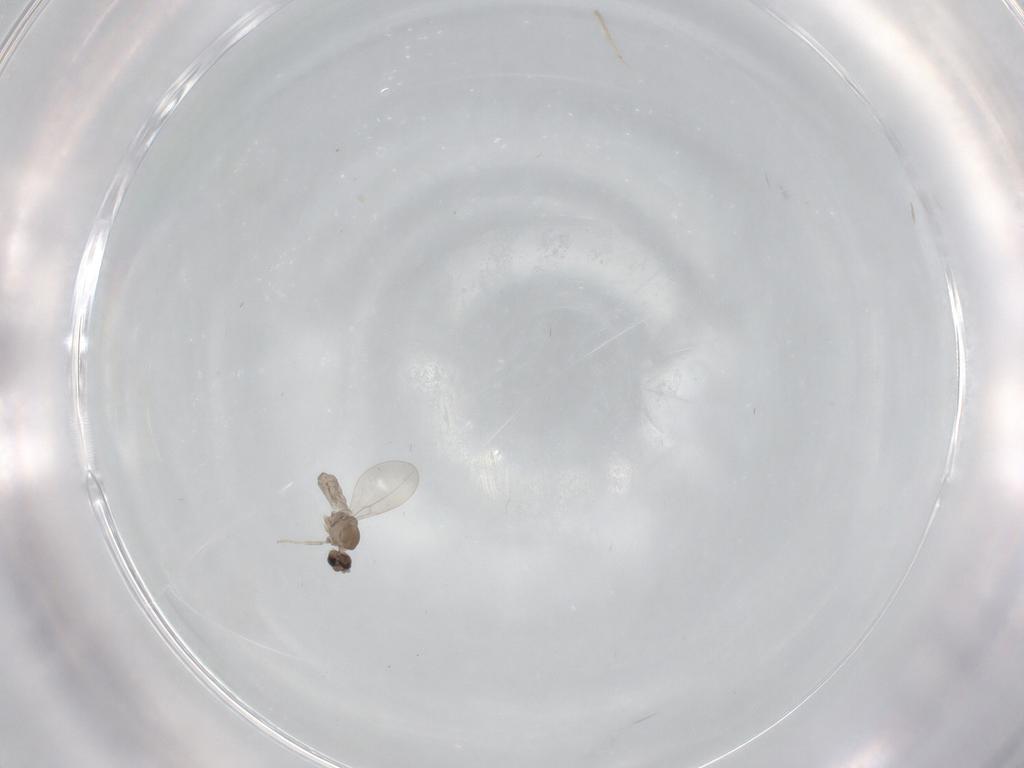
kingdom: Animalia
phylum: Arthropoda
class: Insecta
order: Diptera
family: Cecidomyiidae
